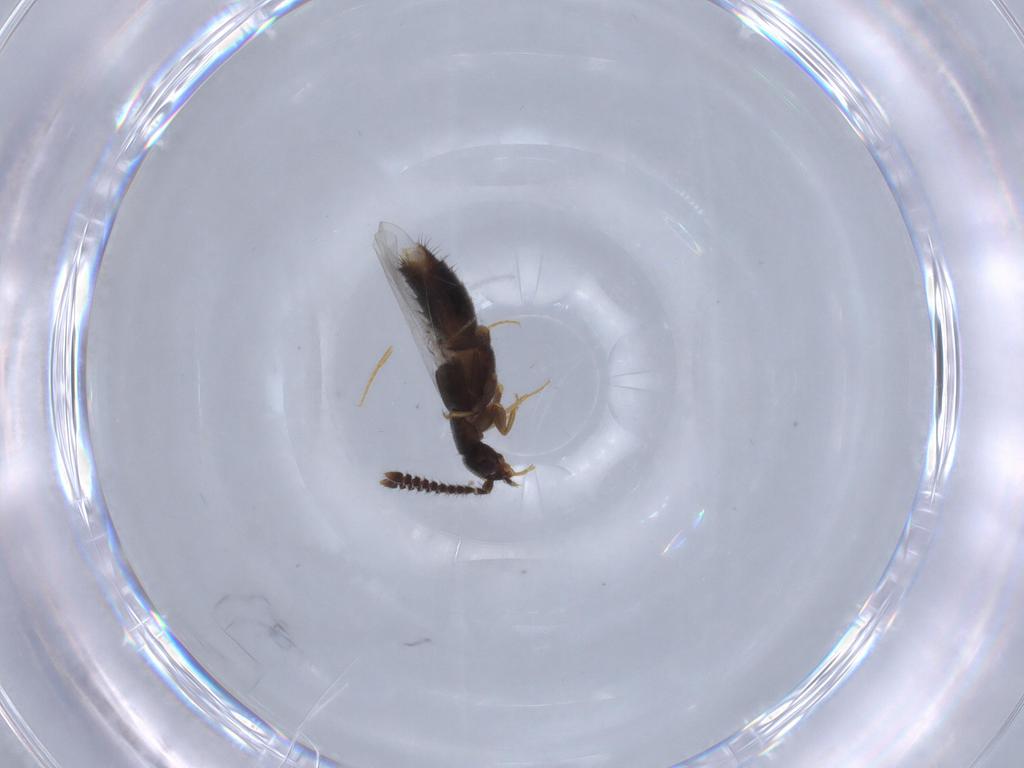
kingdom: Animalia
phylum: Arthropoda
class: Insecta
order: Coleoptera
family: Staphylinidae
